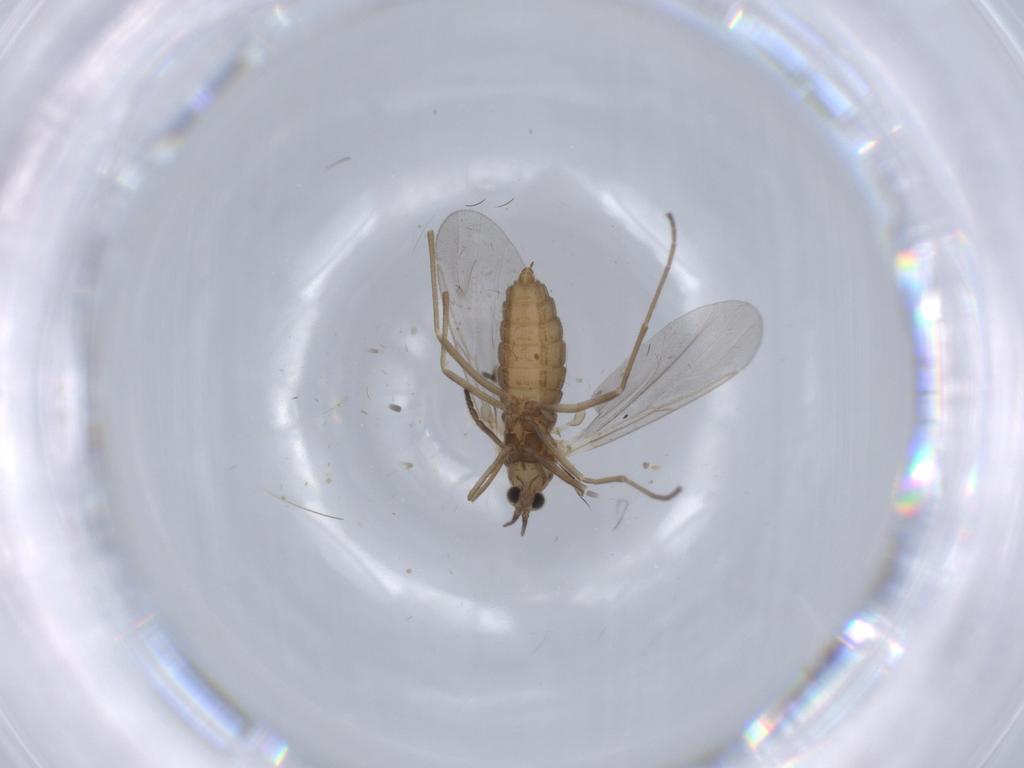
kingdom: Animalia
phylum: Arthropoda
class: Insecta
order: Diptera
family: Cecidomyiidae
